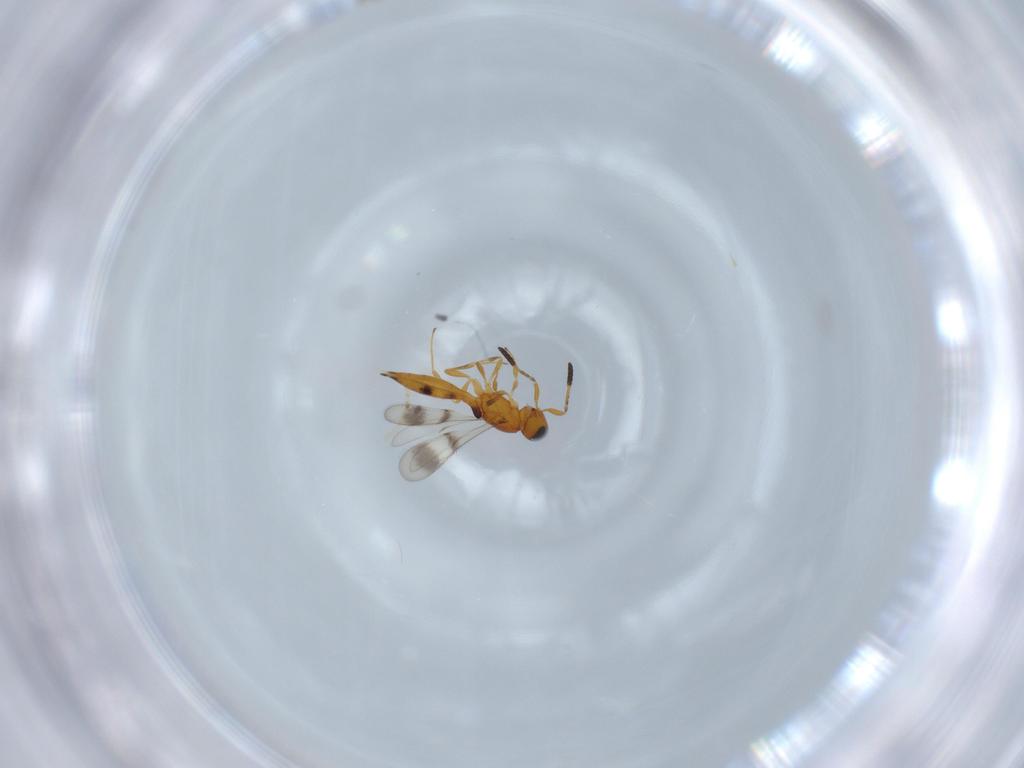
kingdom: Animalia
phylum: Arthropoda
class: Insecta
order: Hymenoptera
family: Scelionidae
